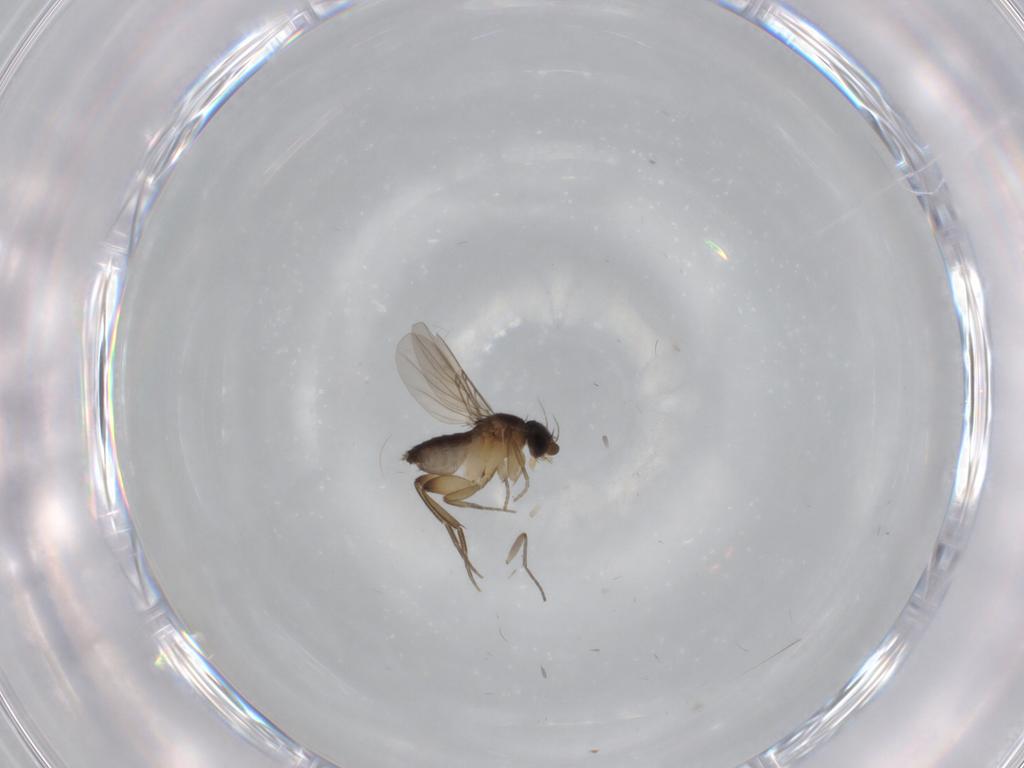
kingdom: Animalia
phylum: Arthropoda
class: Insecta
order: Diptera
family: Phoridae
